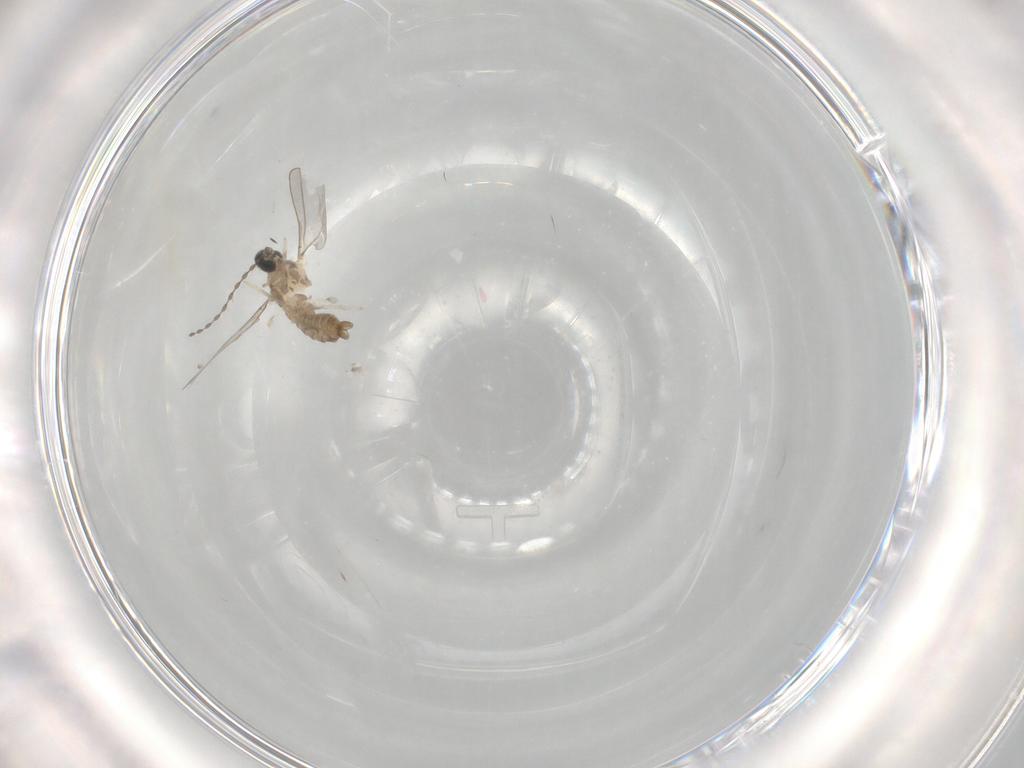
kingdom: Animalia
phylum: Arthropoda
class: Insecta
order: Diptera
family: Cecidomyiidae
